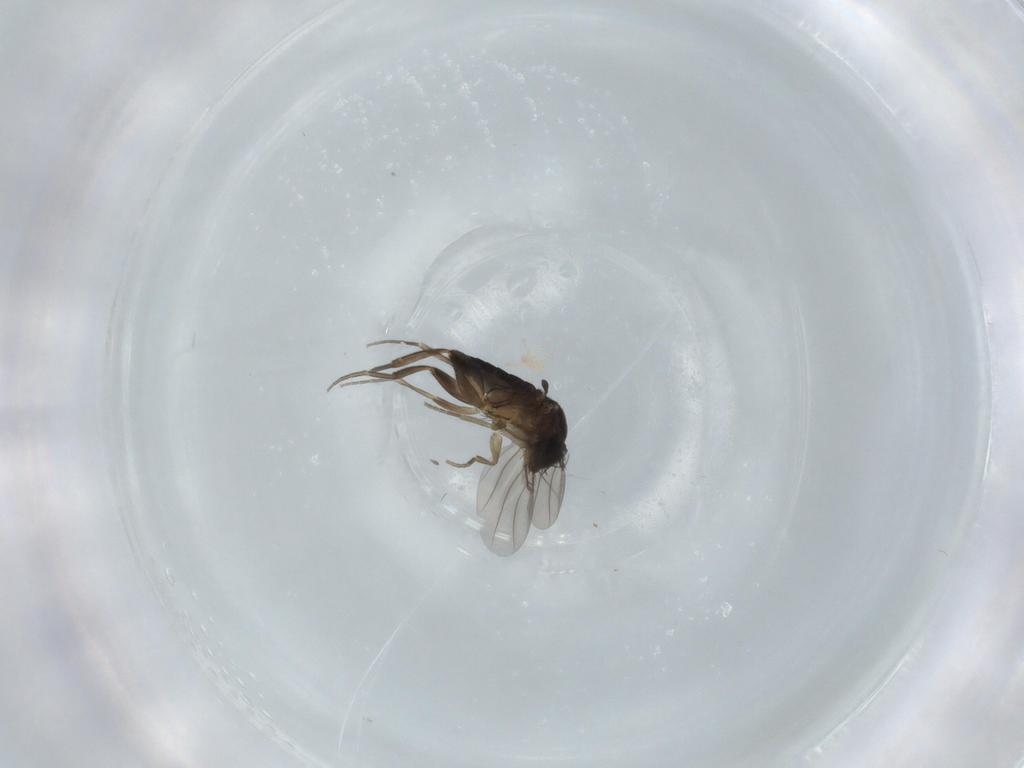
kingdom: Animalia
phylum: Arthropoda
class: Insecta
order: Diptera
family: Phoridae
